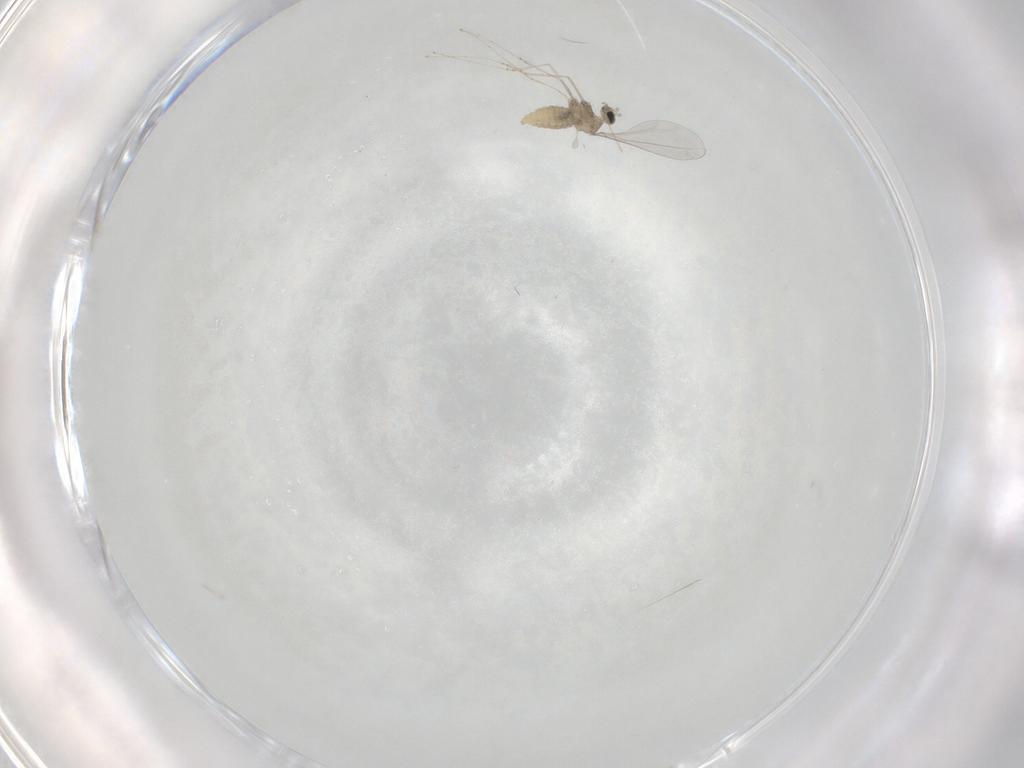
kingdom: Animalia
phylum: Arthropoda
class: Insecta
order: Diptera
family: Cecidomyiidae
